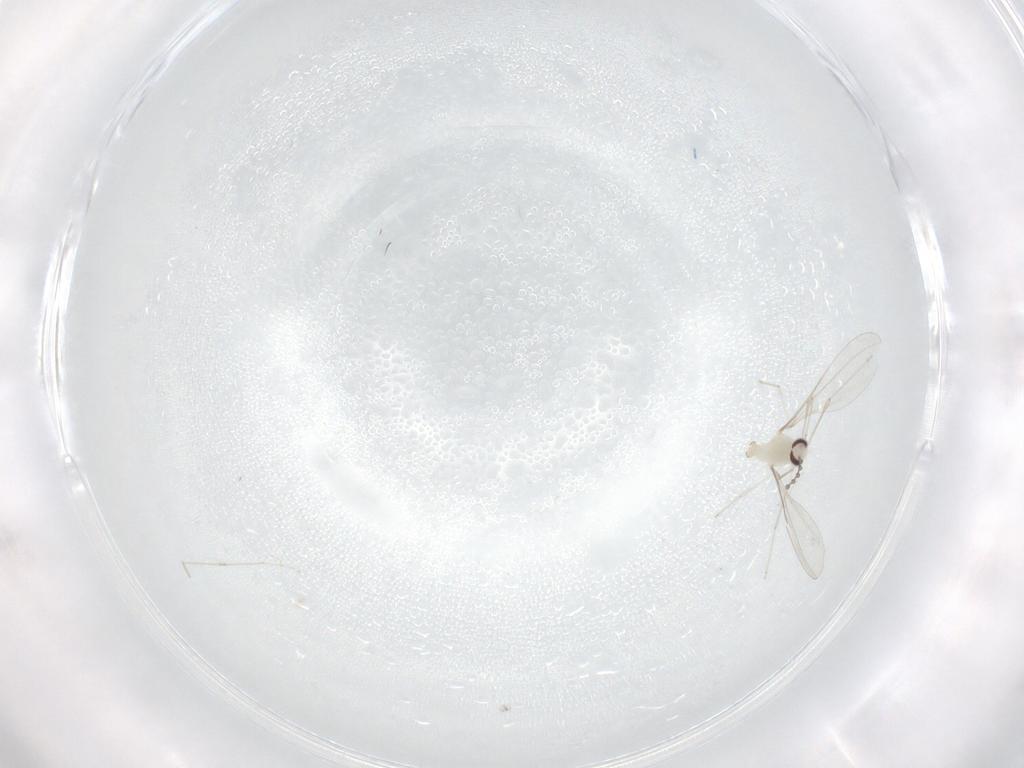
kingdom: Animalia
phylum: Arthropoda
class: Insecta
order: Diptera
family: Cecidomyiidae
